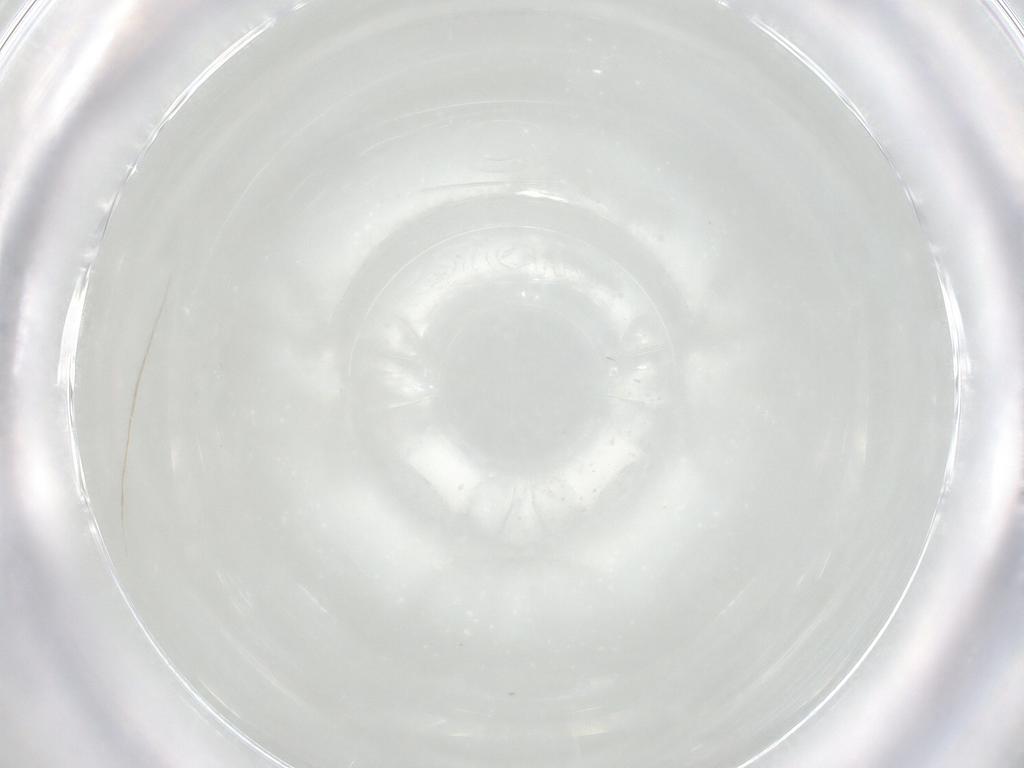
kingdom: Animalia
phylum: Arthropoda
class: Arachnida
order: Trombidiformes
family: Eupodidae
